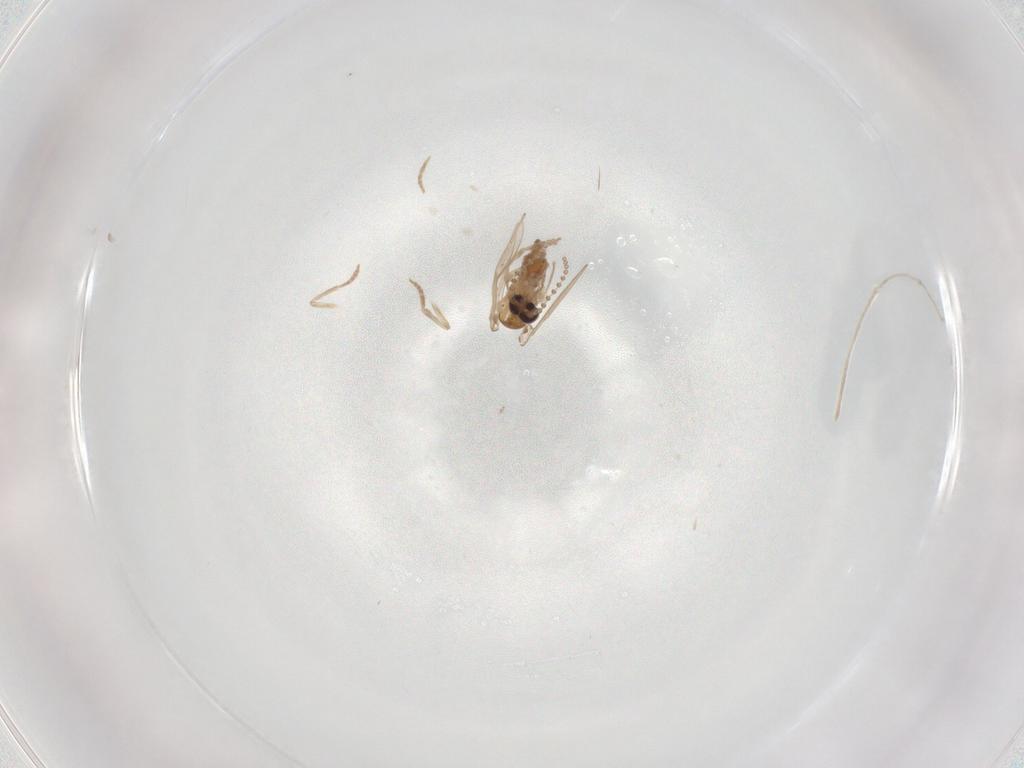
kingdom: Animalia
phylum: Arthropoda
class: Insecta
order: Diptera
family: Psychodidae
